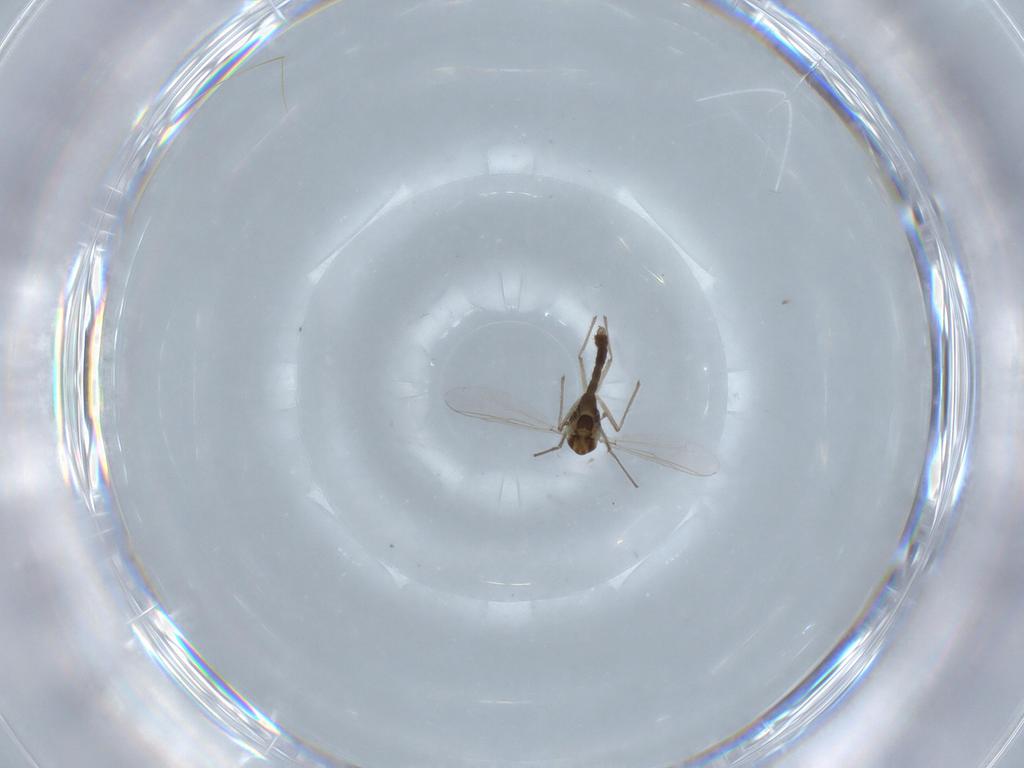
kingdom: Animalia
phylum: Arthropoda
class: Insecta
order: Diptera
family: Chironomidae
